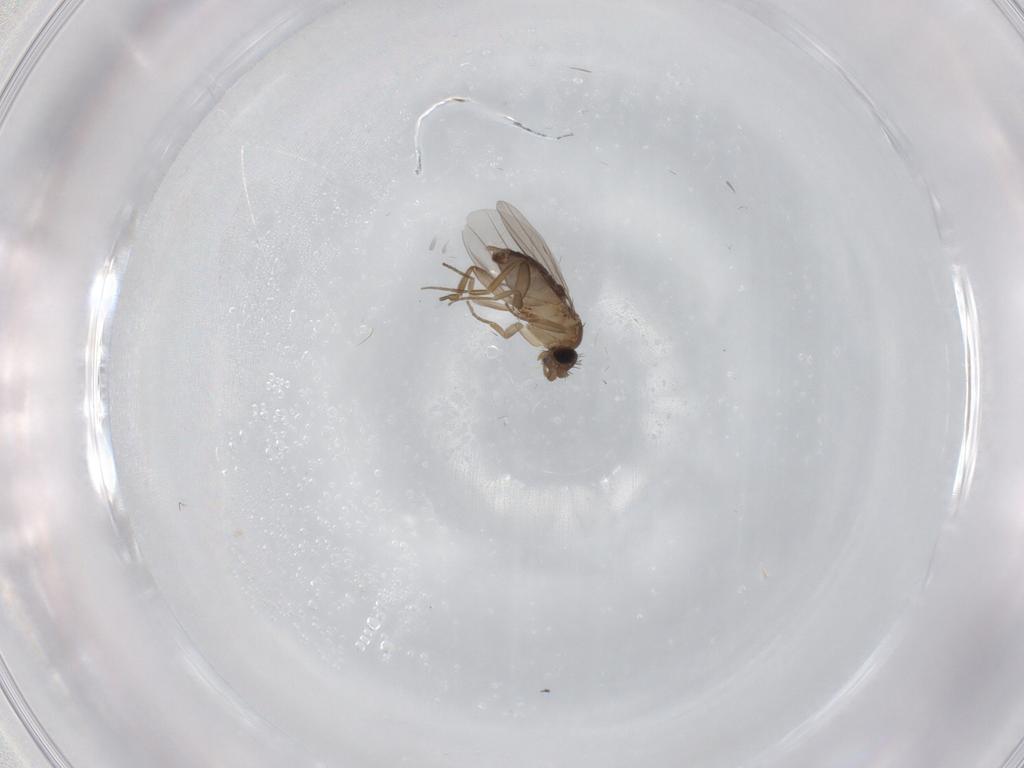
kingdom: Animalia
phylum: Arthropoda
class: Insecta
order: Diptera
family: Phoridae
